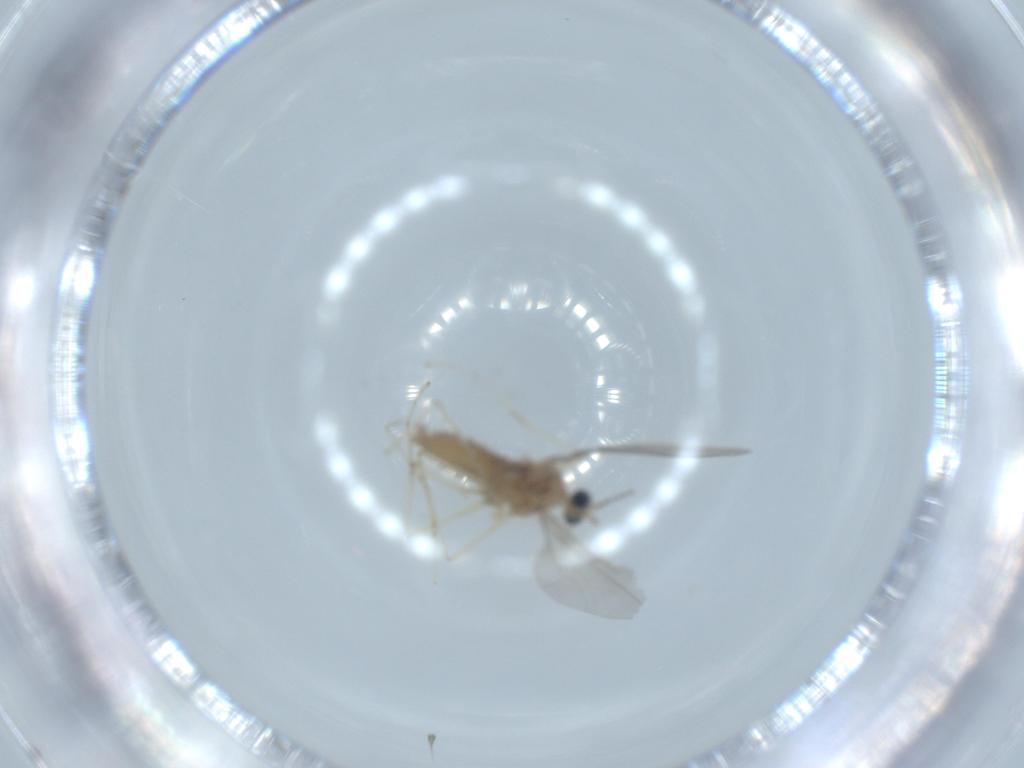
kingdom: Animalia
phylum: Arthropoda
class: Insecta
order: Diptera
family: Cecidomyiidae
